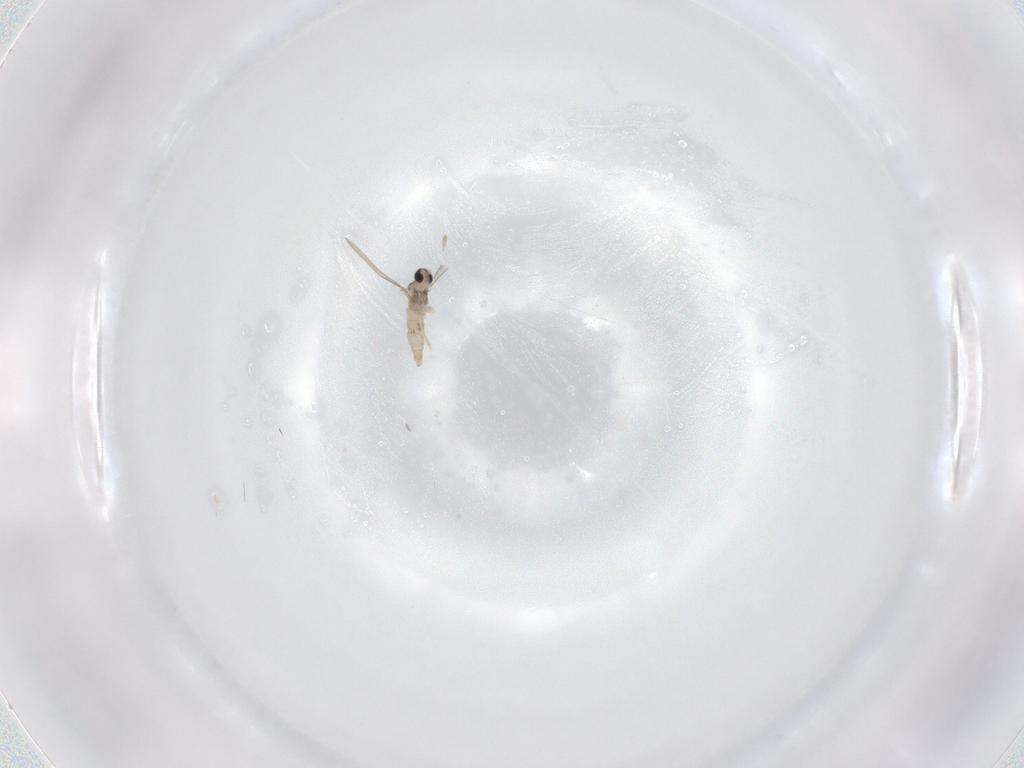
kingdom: Animalia
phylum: Arthropoda
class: Insecta
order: Diptera
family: Cecidomyiidae
